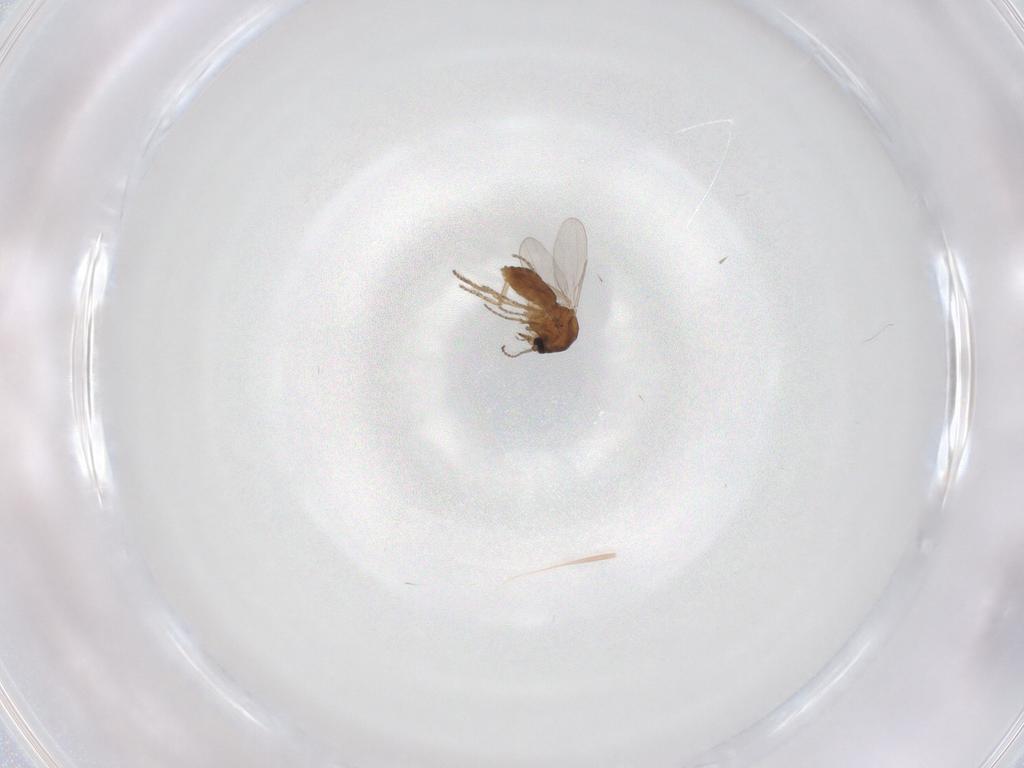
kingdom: Animalia
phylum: Arthropoda
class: Insecta
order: Diptera
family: Ceratopogonidae
